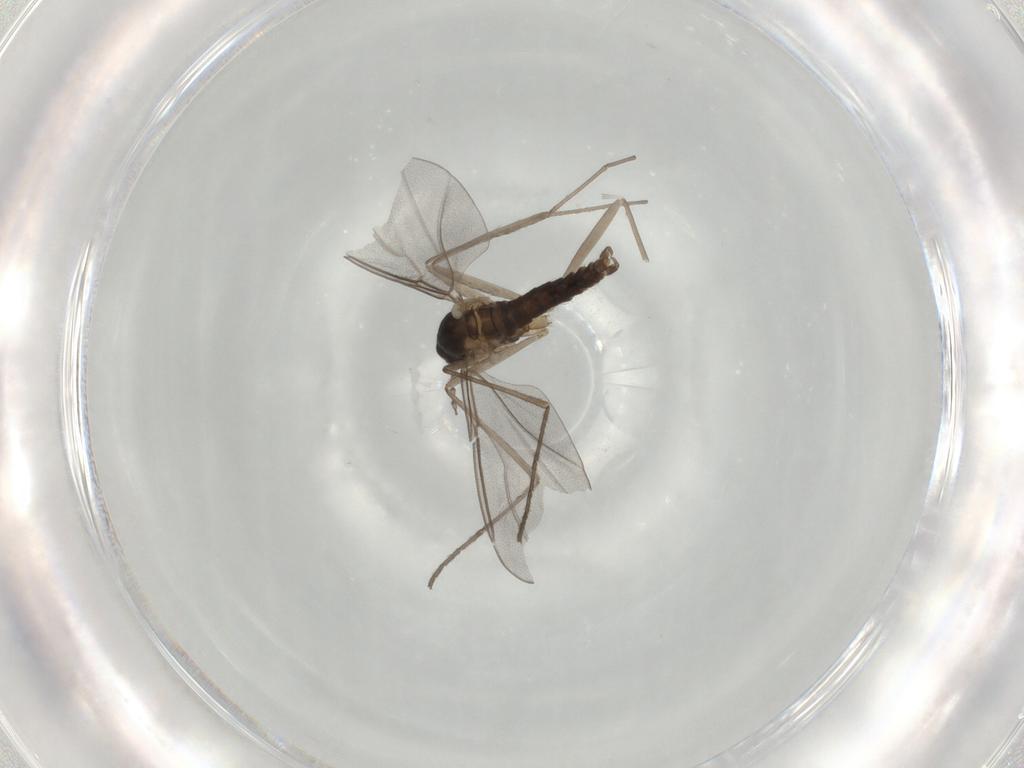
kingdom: Animalia
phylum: Arthropoda
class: Insecta
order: Diptera
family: Cecidomyiidae
